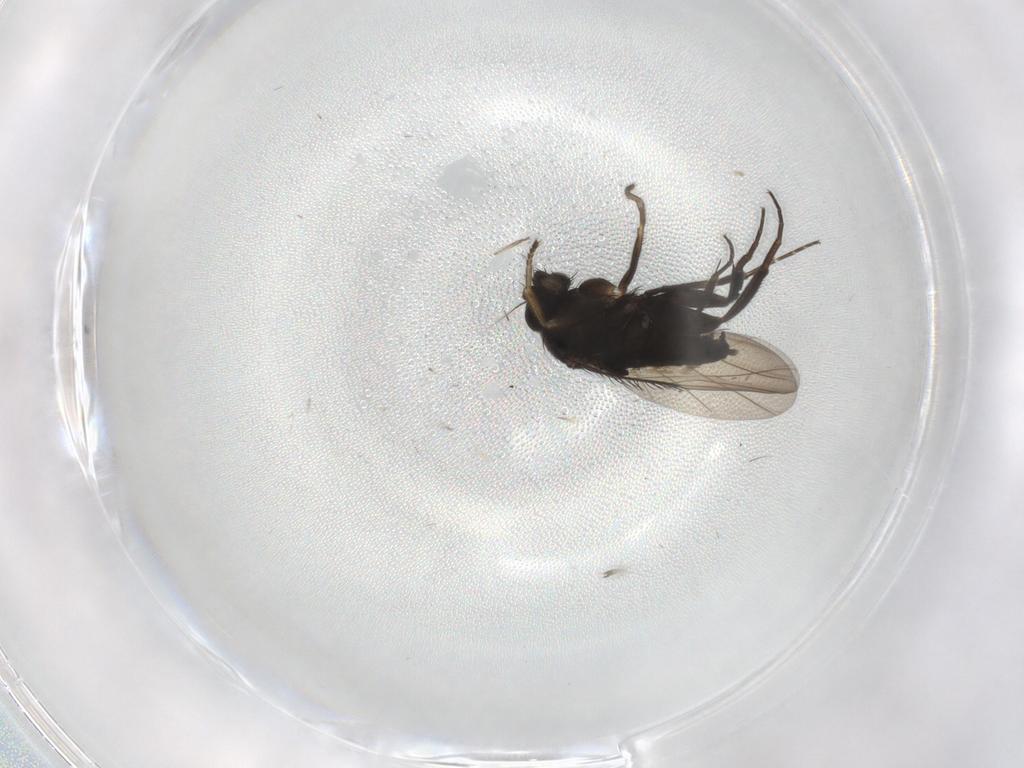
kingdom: Animalia
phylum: Arthropoda
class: Insecta
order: Diptera
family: Phoridae
